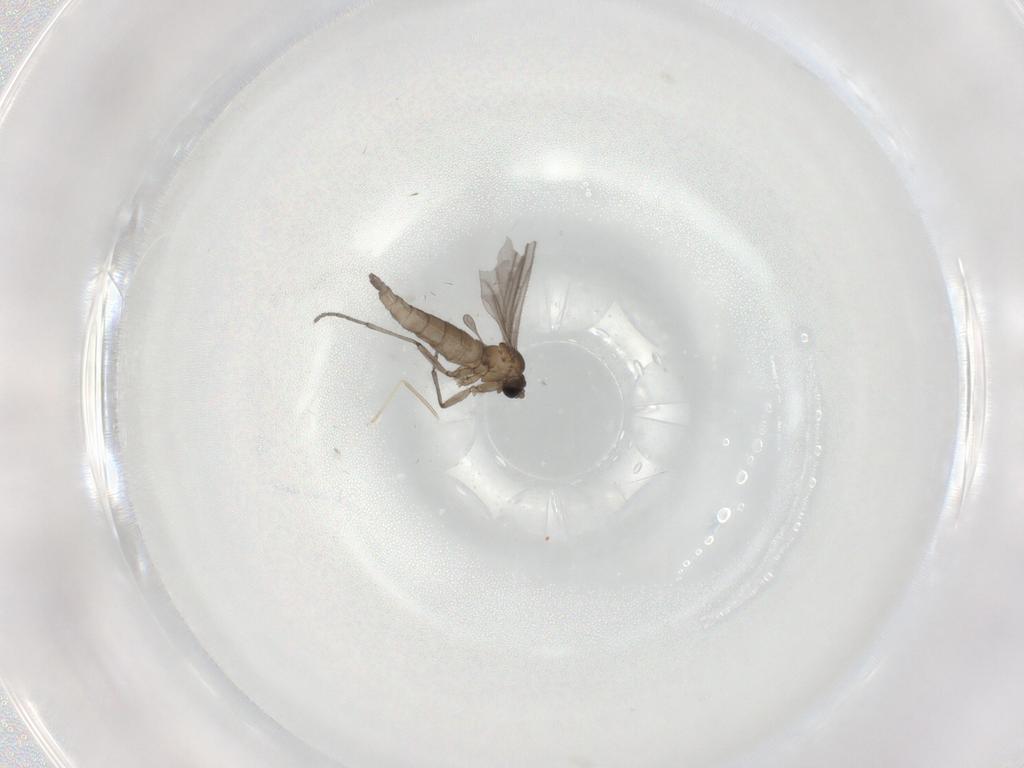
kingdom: Animalia
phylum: Arthropoda
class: Insecta
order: Diptera
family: Sciaridae
